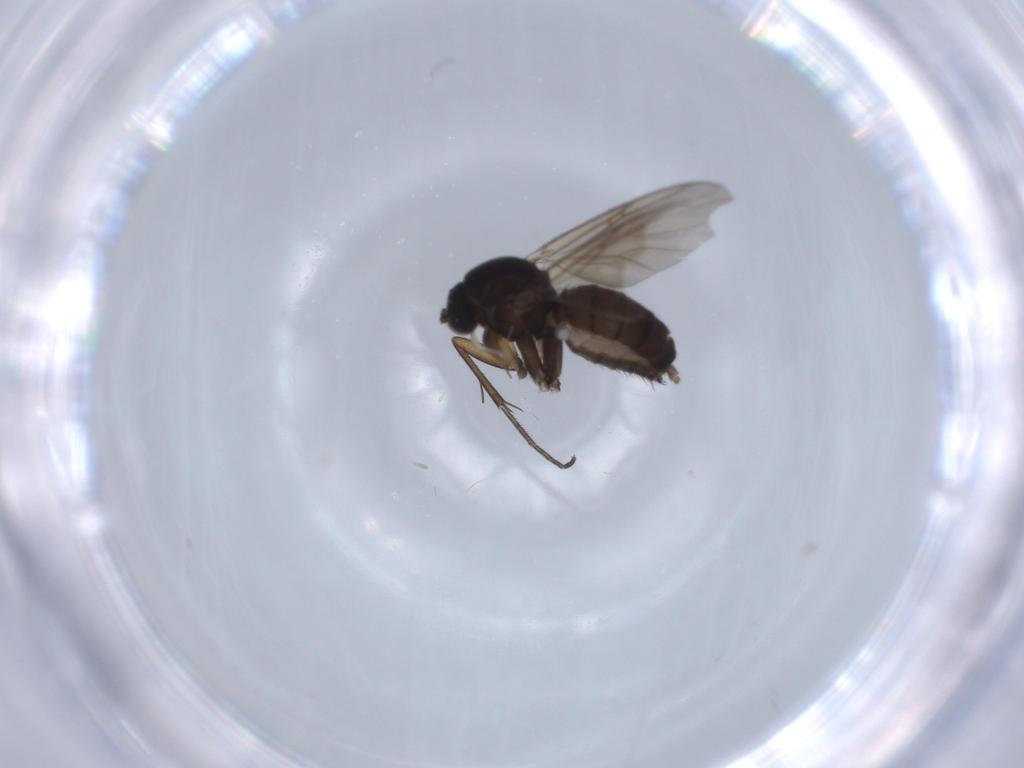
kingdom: Animalia
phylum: Arthropoda
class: Insecta
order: Diptera
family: Mycetophilidae
